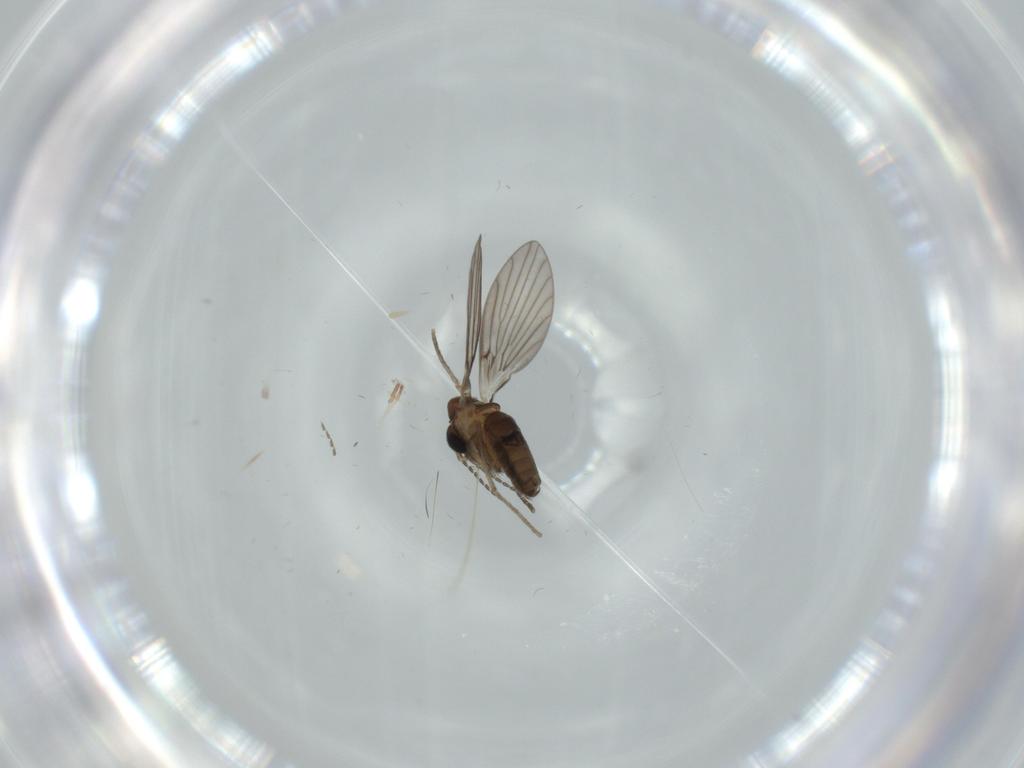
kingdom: Animalia
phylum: Arthropoda
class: Insecta
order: Diptera
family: Psychodidae
